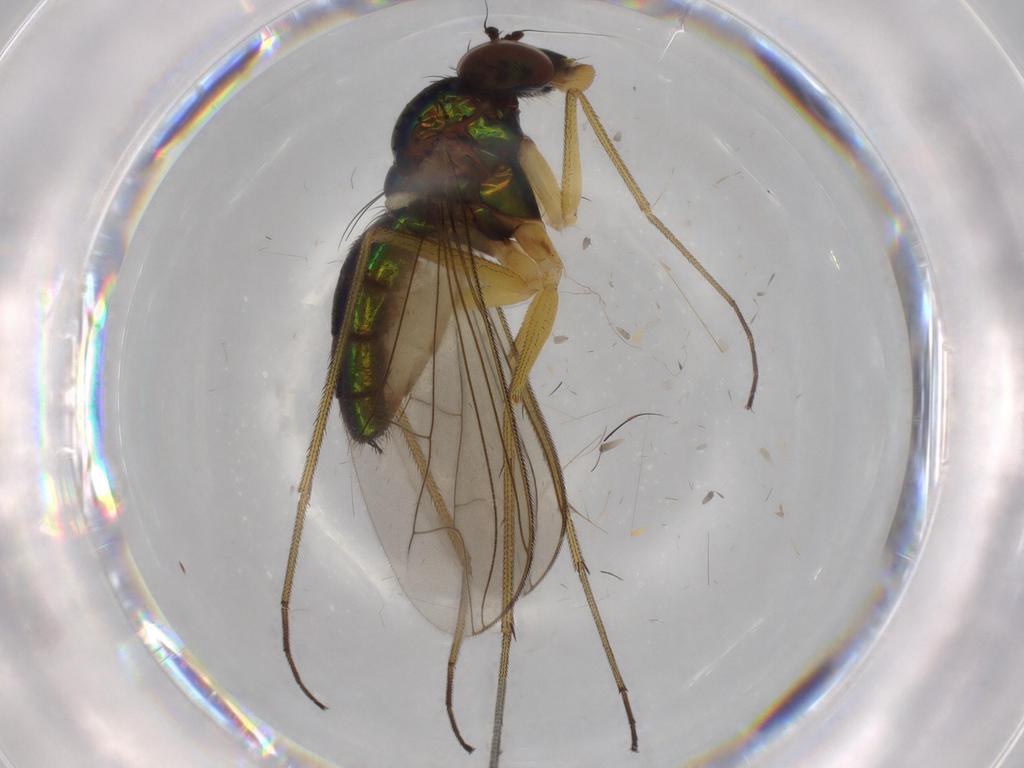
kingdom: Animalia
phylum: Arthropoda
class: Insecta
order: Diptera
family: Dolichopodidae
